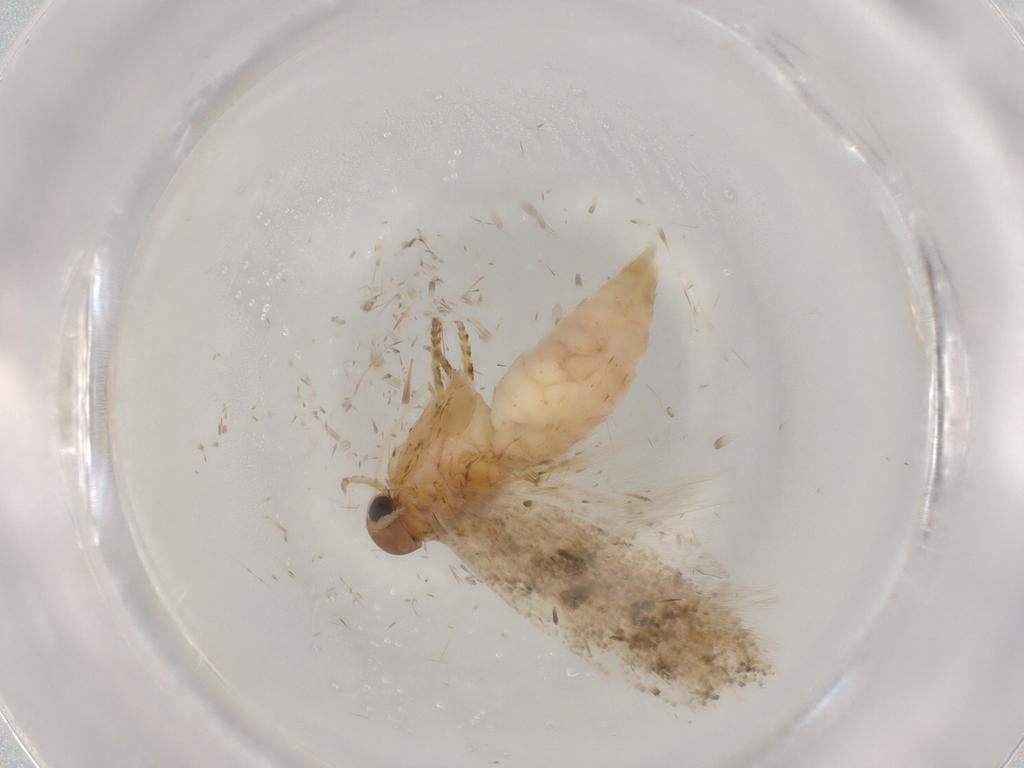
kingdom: Animalia
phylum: Arthropoda
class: Insecta
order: Lepidoptera
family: Gelechiidae
